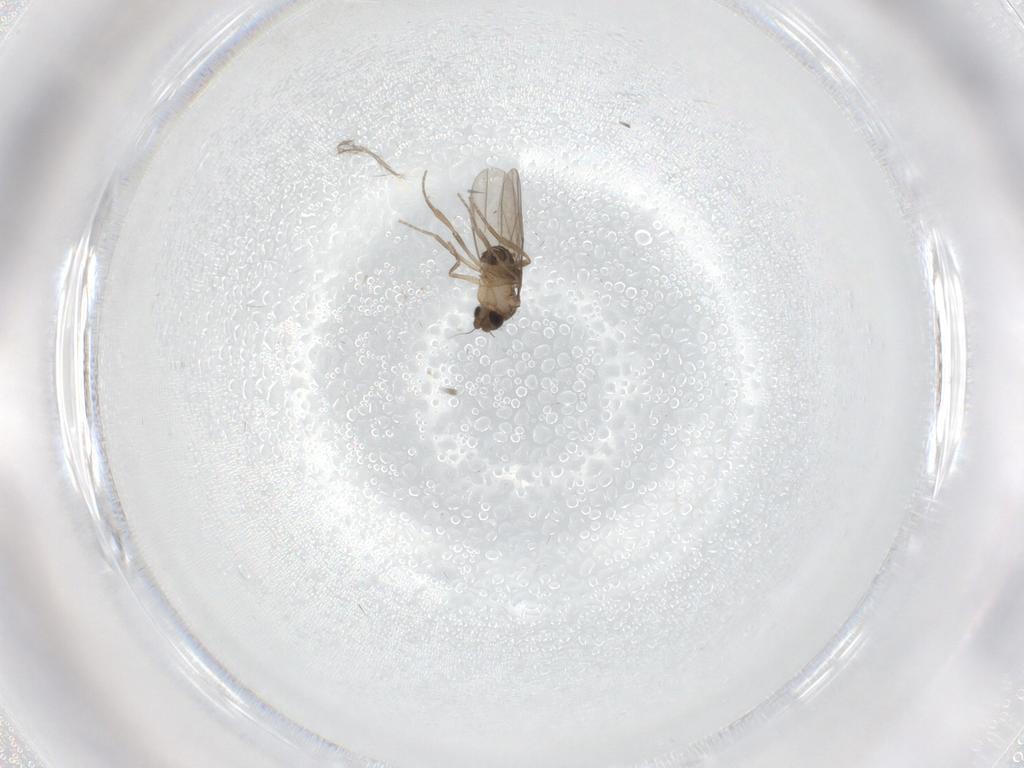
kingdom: Animalia
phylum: Arthropoda
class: Insecta
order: Diptera
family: Cecidomyiidae
